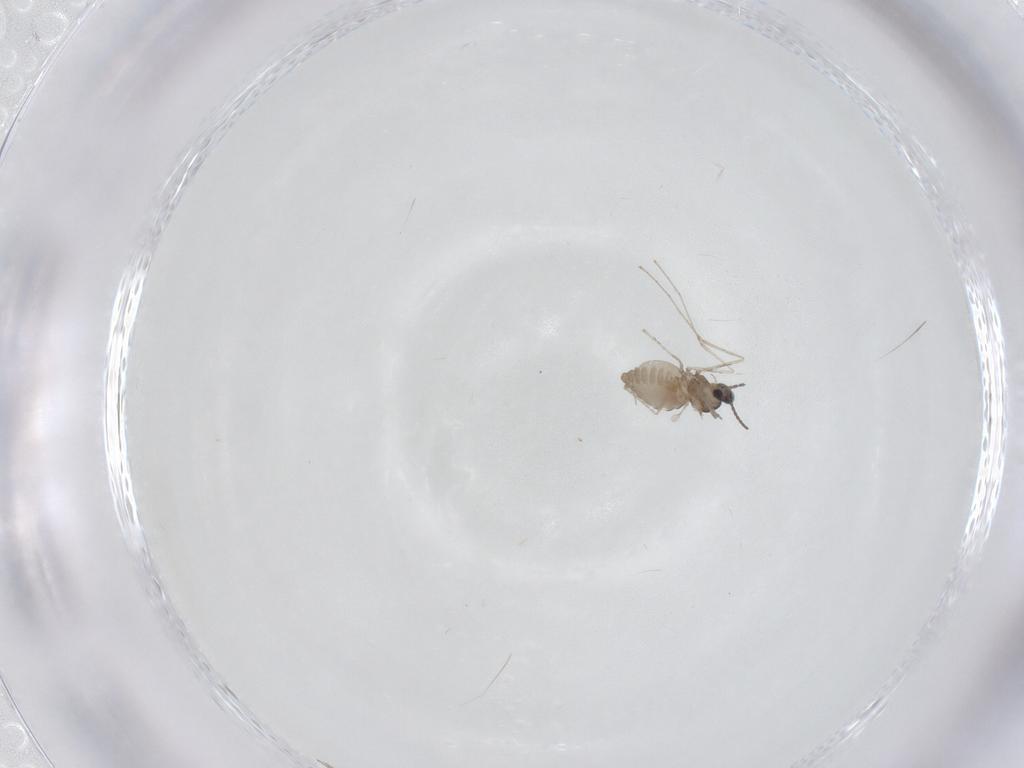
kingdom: Animalia
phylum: Arthropoda
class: Insecta
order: Diptera
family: Cecidomyiidae
